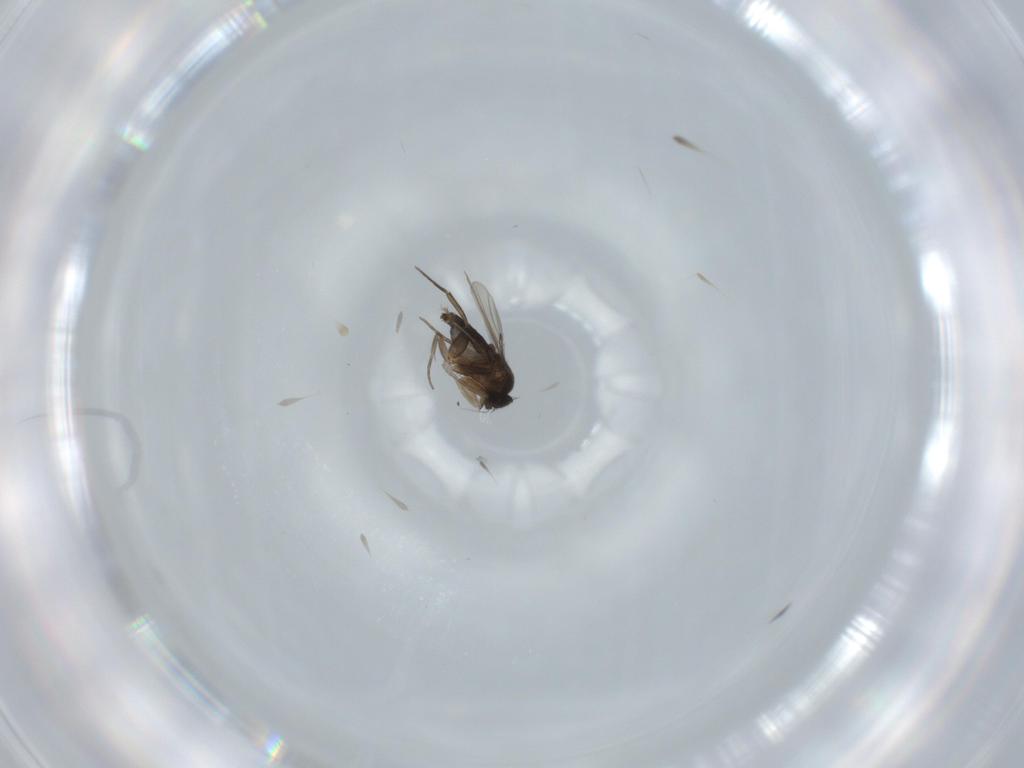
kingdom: Animalia
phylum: Arthropoda
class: Insecta
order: Diptera
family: Phoridae
